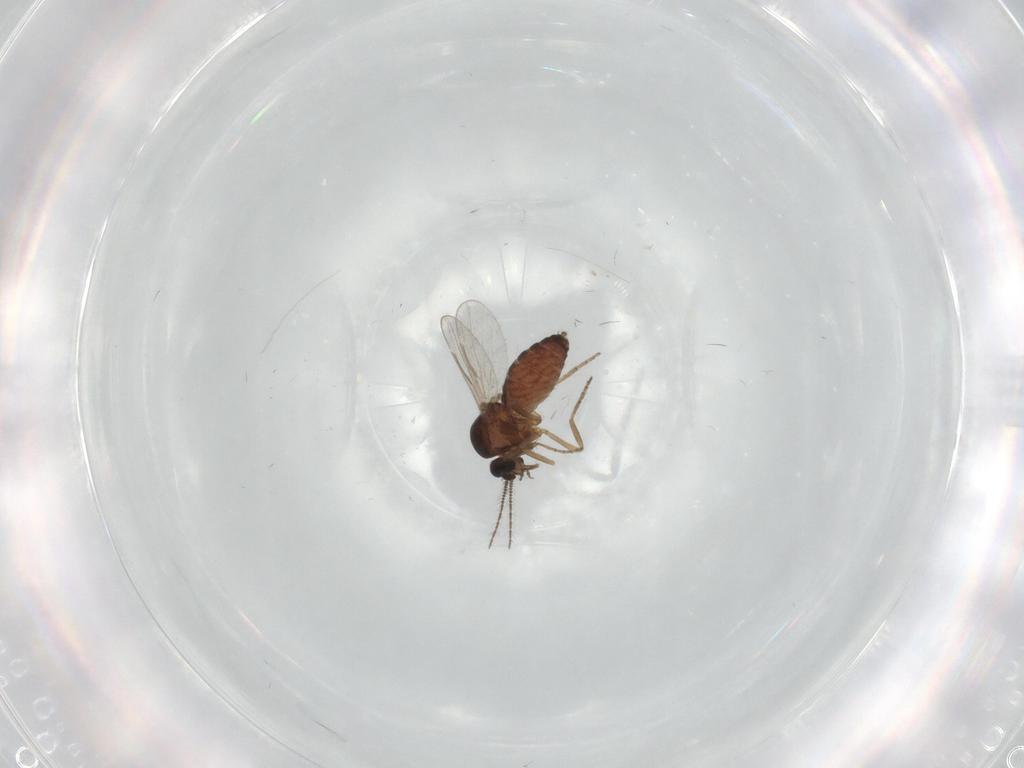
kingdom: Animalia
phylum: Arthropoda
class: Insecta
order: Diptera
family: Ceratopogonidae
